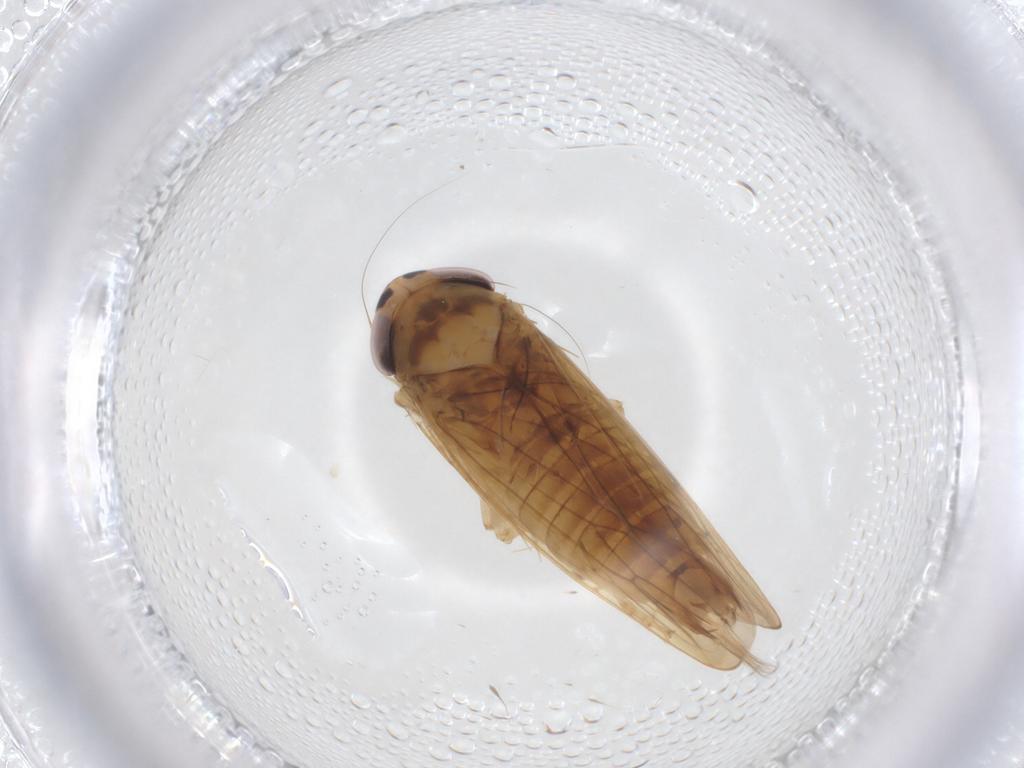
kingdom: Animalia
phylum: Arthropoda
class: Insecta
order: Hemiptera
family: Cicadellidae
